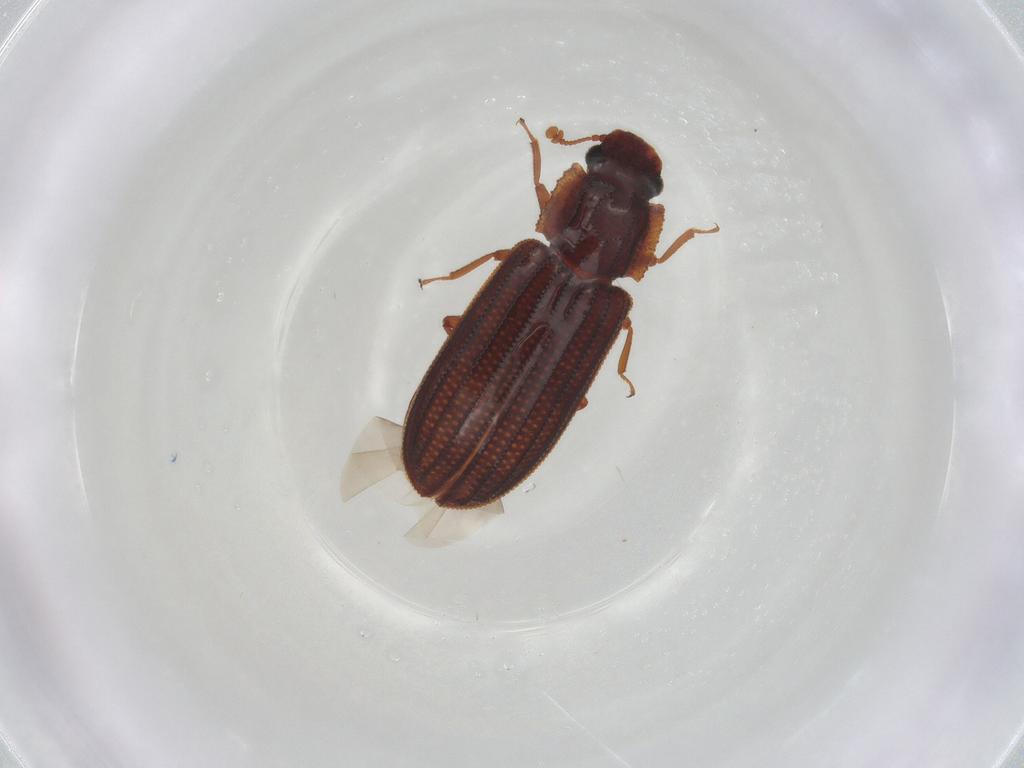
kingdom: Animalia
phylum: Arthropoda
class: Insecta
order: Coleoptera
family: Zopheridae
